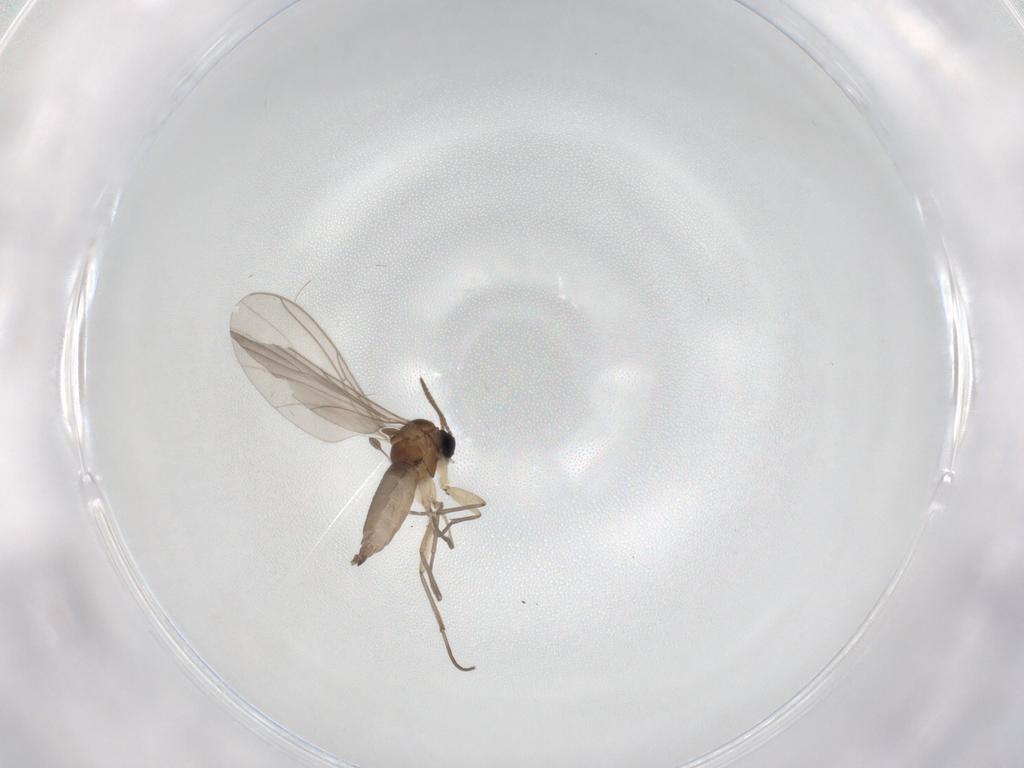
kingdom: Animalia
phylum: Arthropoda
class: Insecta
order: Diptera
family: Sciaridae
